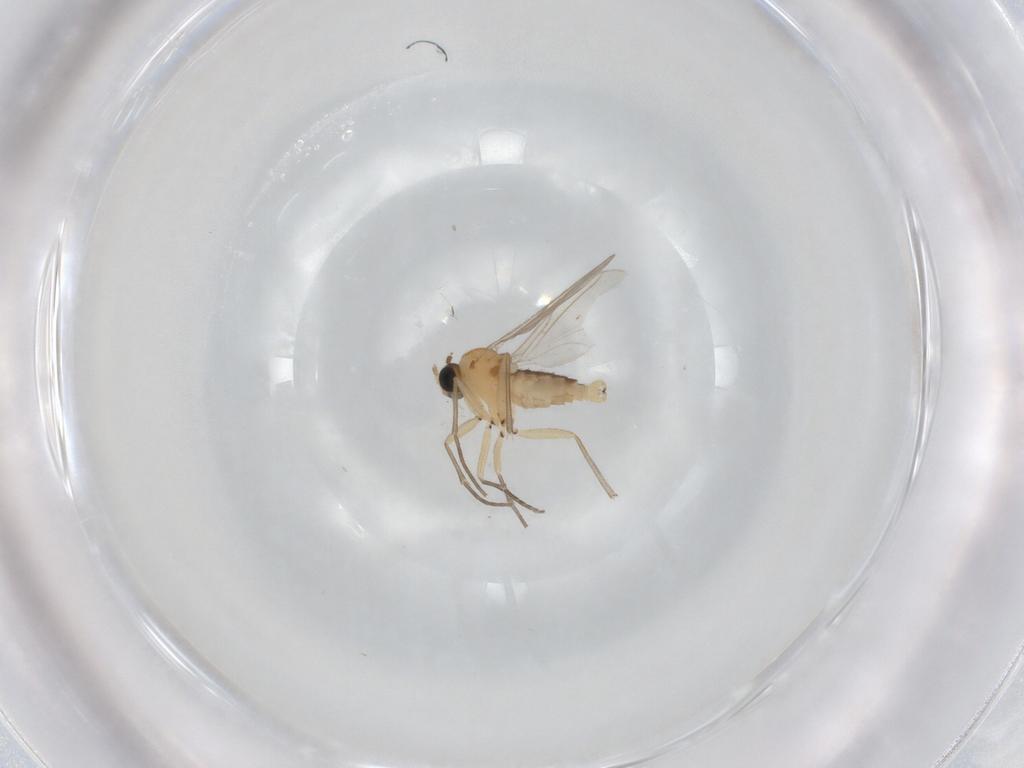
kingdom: Animalia
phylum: Arthropoda
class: Insecta
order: Diptera
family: Sciaridae
